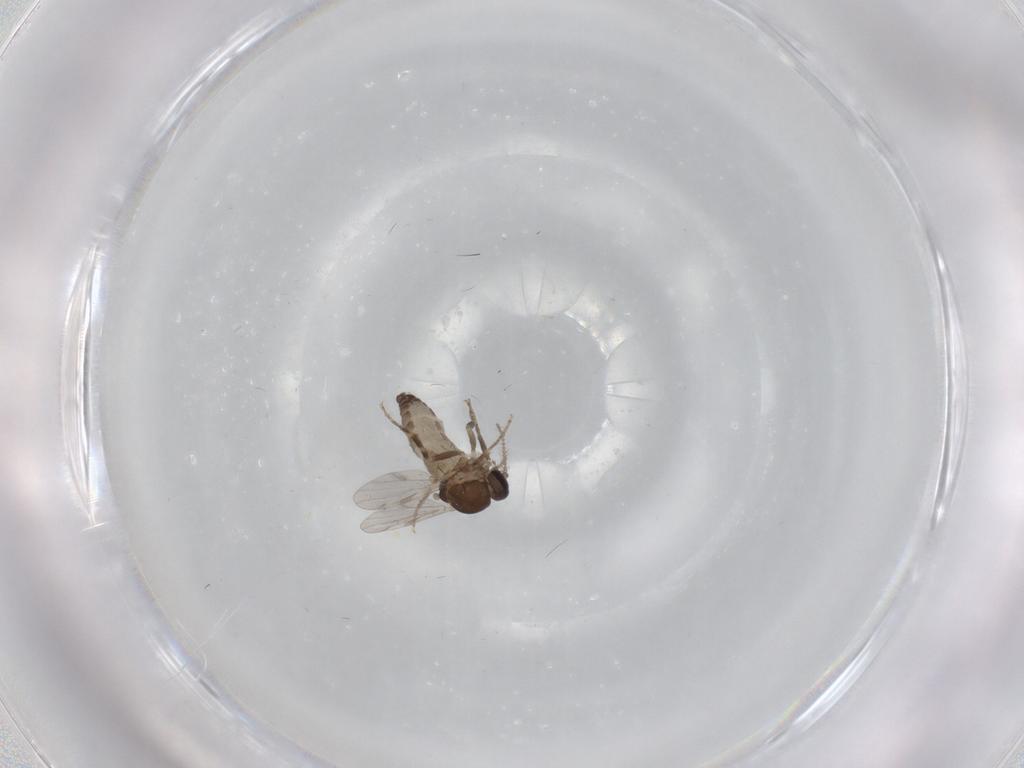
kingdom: Animalia
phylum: Arthropoda
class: Insecta
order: Diptera
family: Ceratopogonidae
